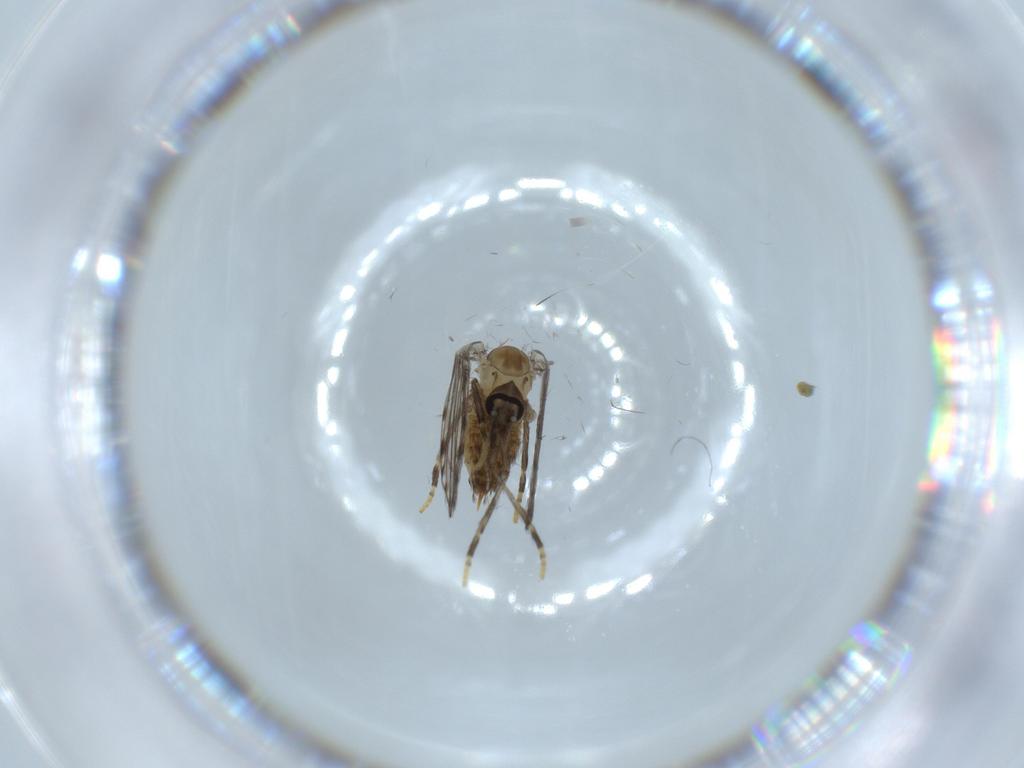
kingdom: Animalia
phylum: Arthropoda
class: Insecta
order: Diptera
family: Psychodidae
